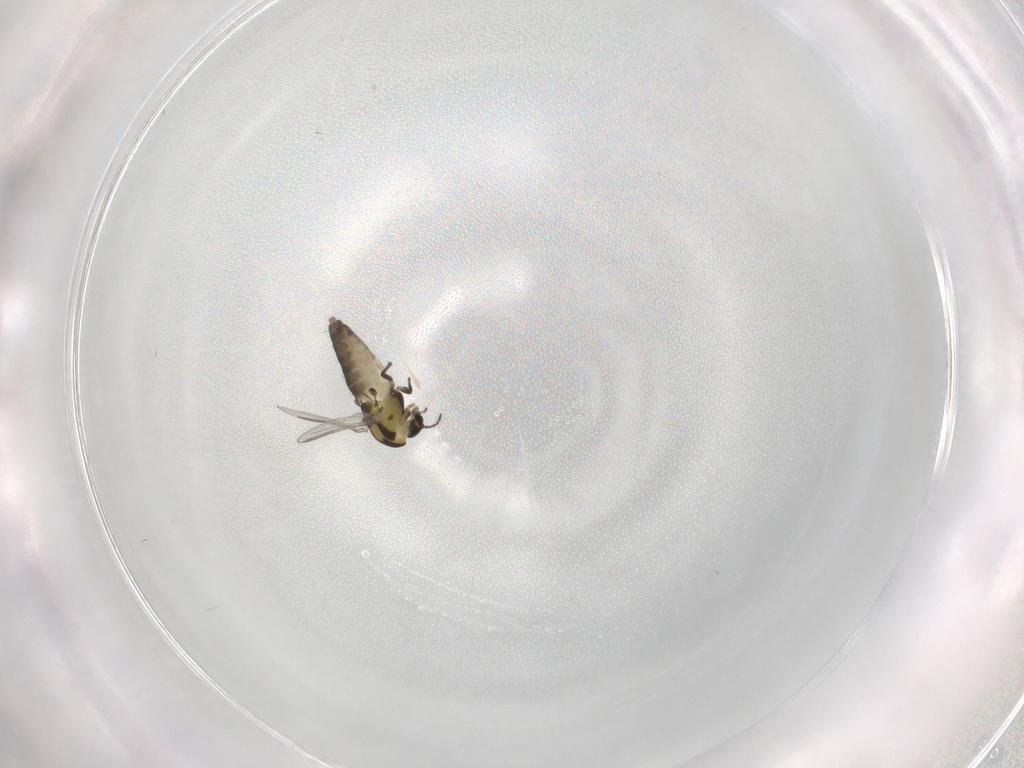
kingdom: Animalia
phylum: Arthropoda
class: Insecta
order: Diptera
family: Chironomidae
